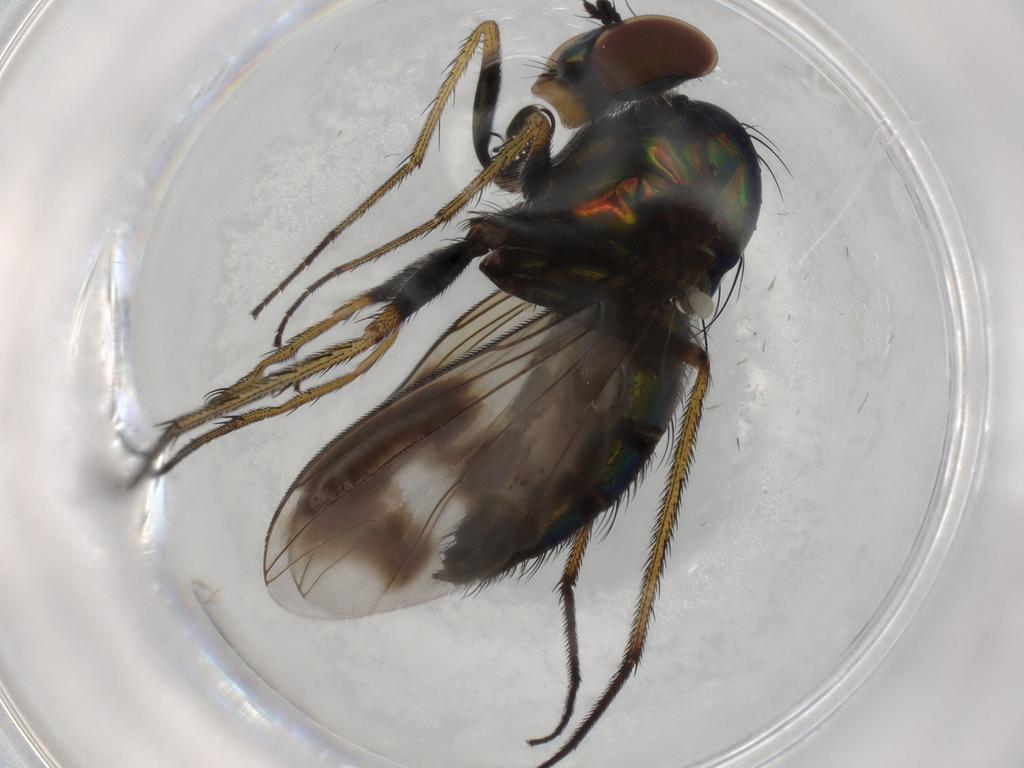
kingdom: Animalia
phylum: Arthropoda
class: Insecta
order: Diptera
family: Dolichopodidae
